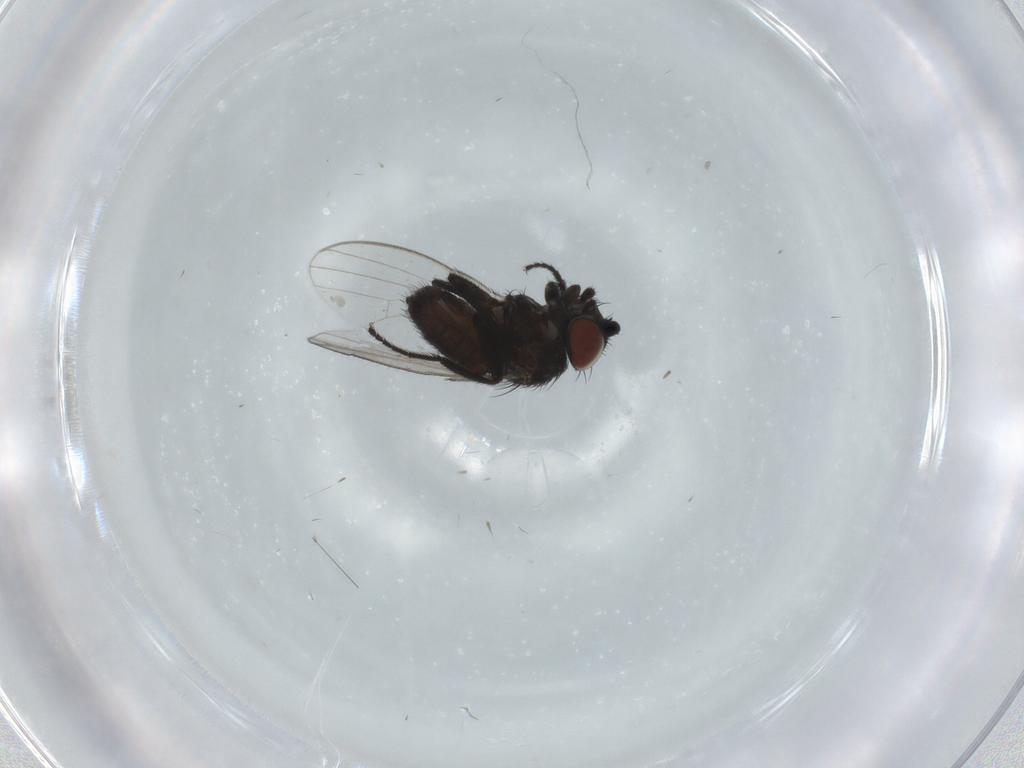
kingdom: Animalia
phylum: Arthropoda
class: Insecta
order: Diptera
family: Milichiidae
